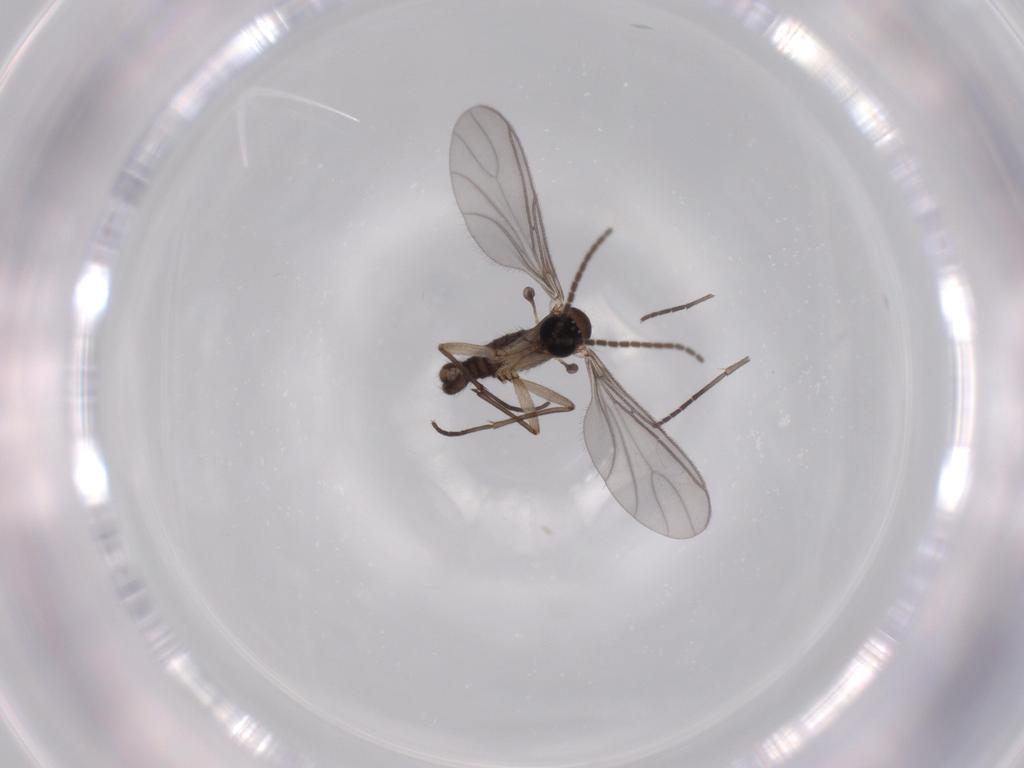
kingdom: Animalia
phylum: Arthropoda
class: Insecta
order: Diptera
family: Sciaridae
